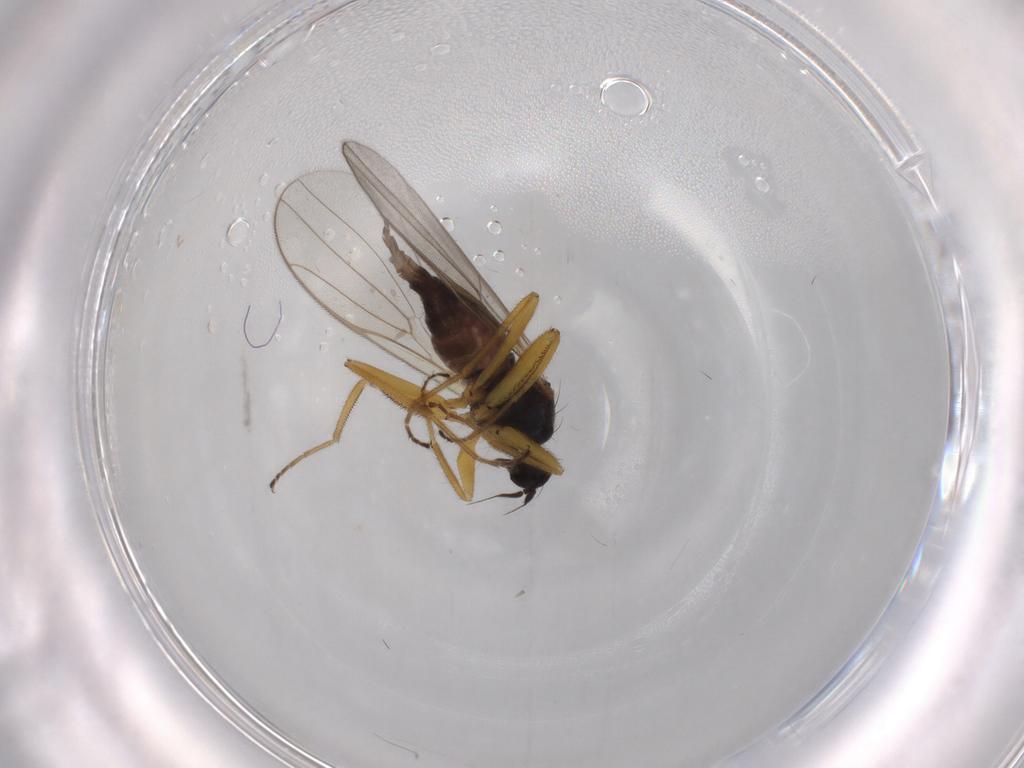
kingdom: Animalia
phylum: Arthropoda
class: Insecta
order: Diptera
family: Hybotidae
